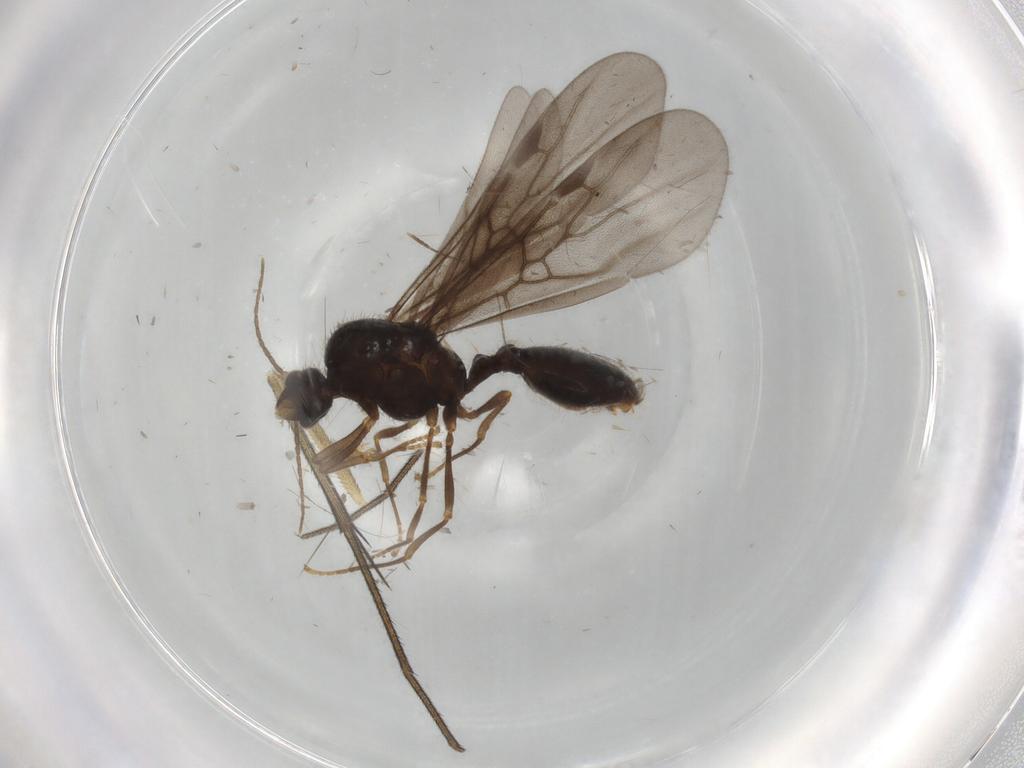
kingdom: Animalia
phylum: Arthropoda
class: Insecta
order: Hymenoptera
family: Formicidae
